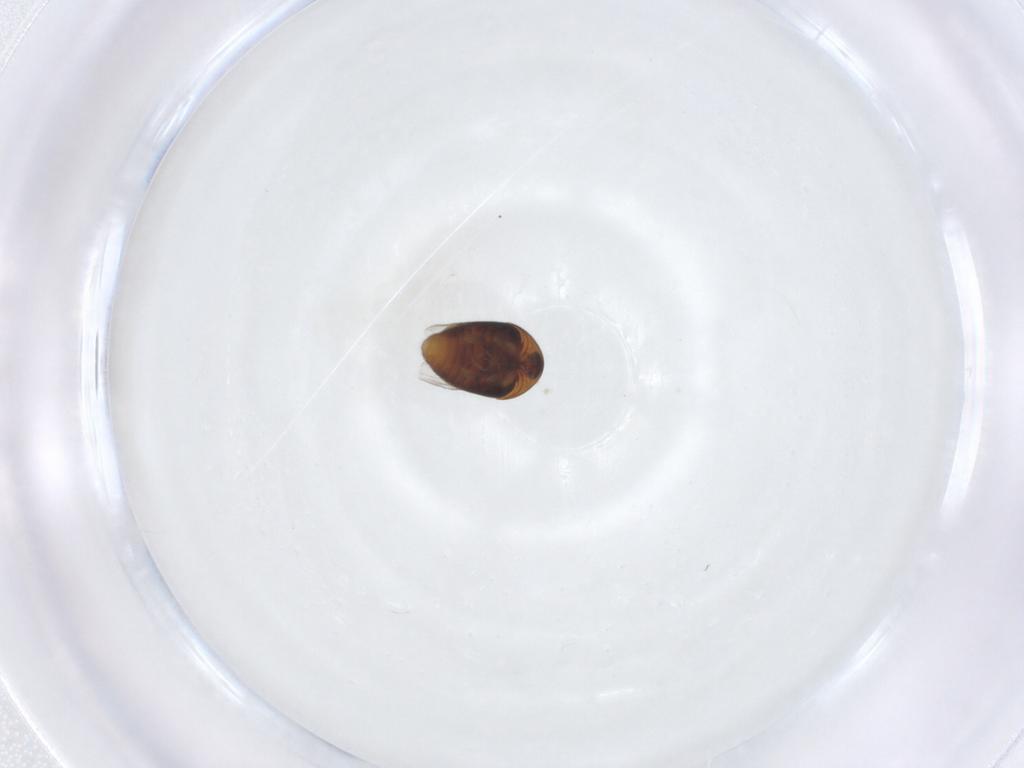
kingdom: Animalia
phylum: Arthropoda
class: Insecta
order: Coleoptera
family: Corylophidae
